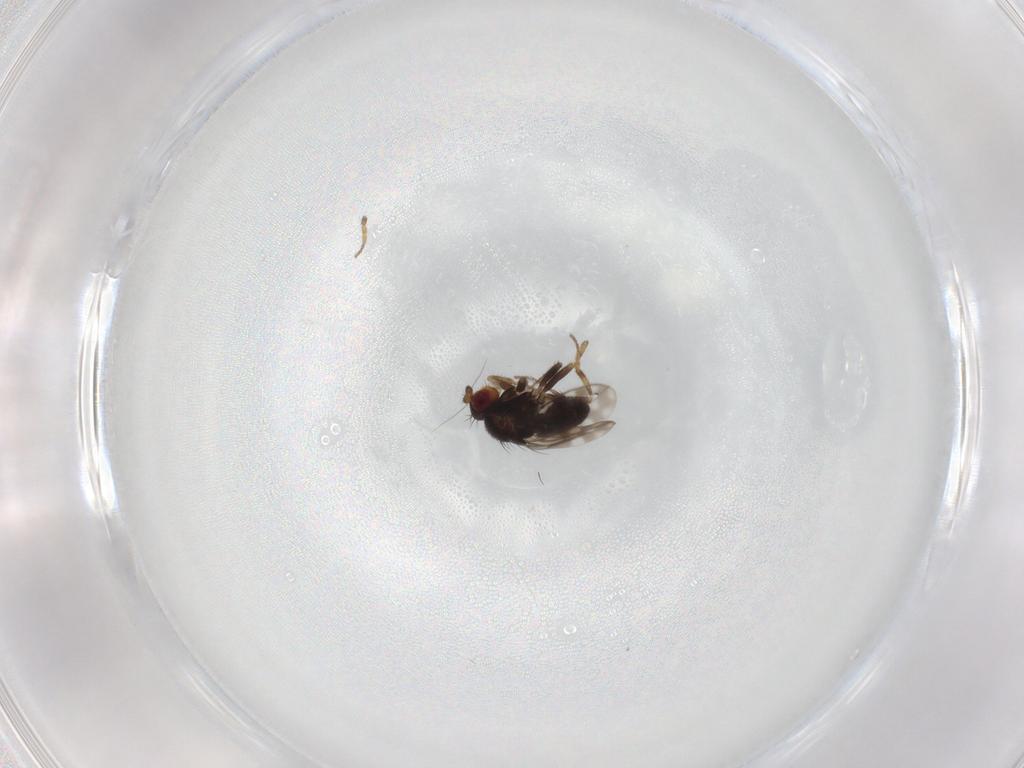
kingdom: Animalia
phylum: Arthropoda
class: Insecta
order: Diptera
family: Sphaeroceridae
